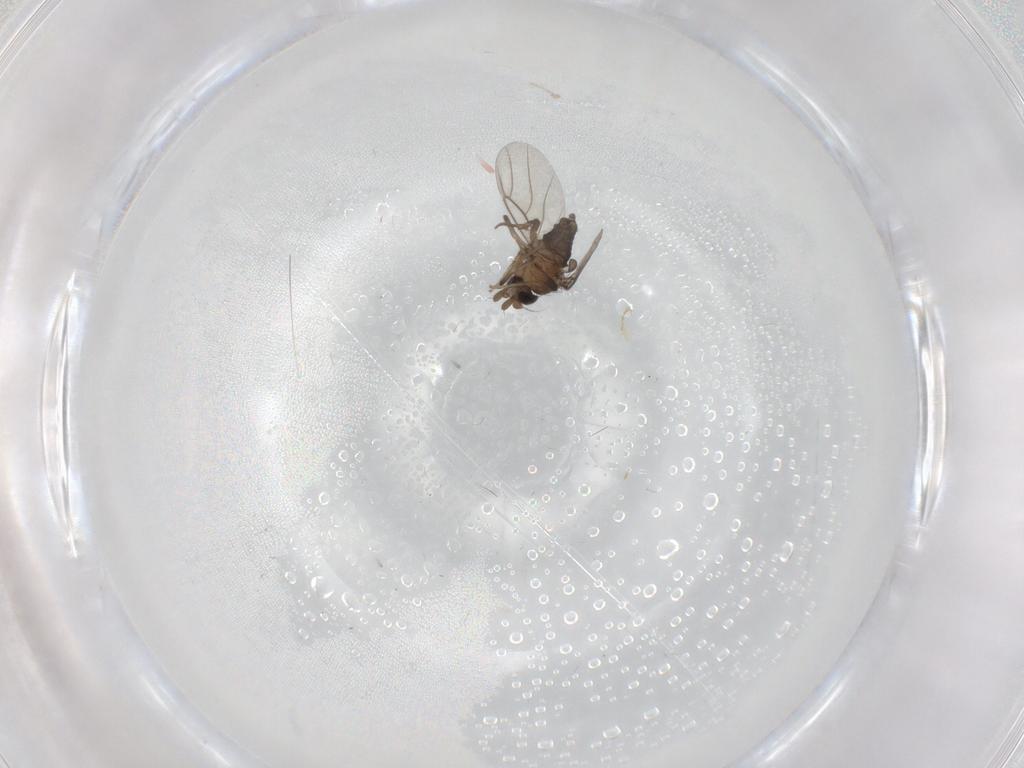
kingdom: Animalia
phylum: Arthropoda
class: Insecta
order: Diptera
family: Phoridae
